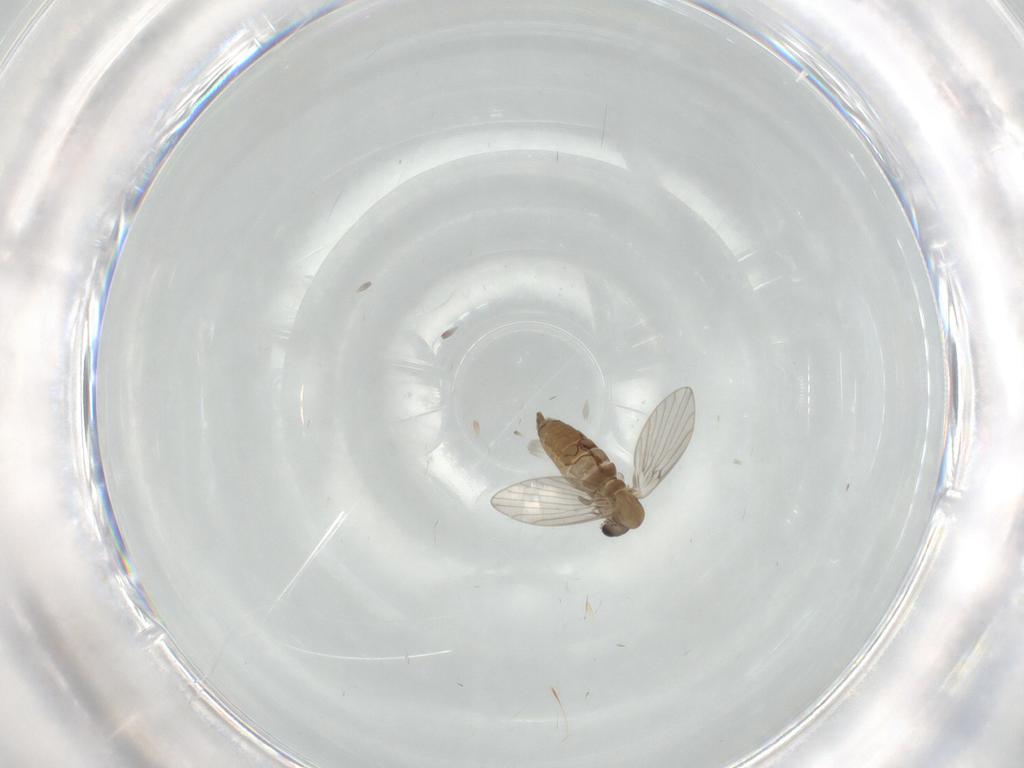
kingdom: Animalia
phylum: Arthropoda
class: Insecta
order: Diptera
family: Psychodidae
